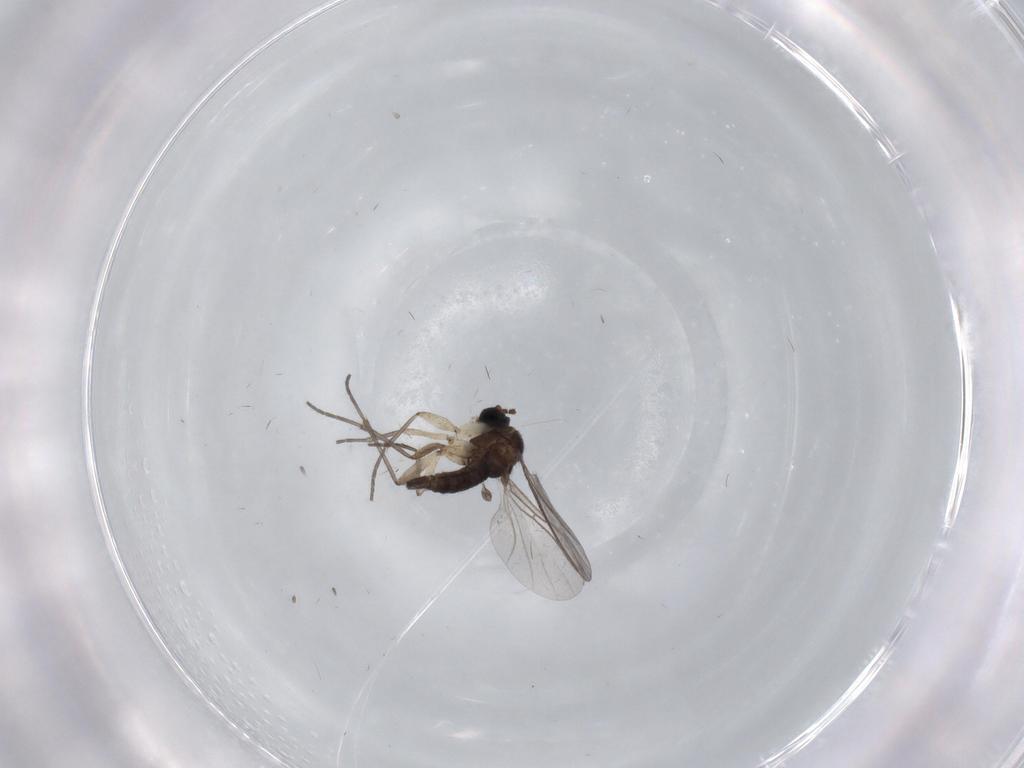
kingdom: Animalia
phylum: Arthropoda
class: Insecta
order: Diptera
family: Sciaridae
